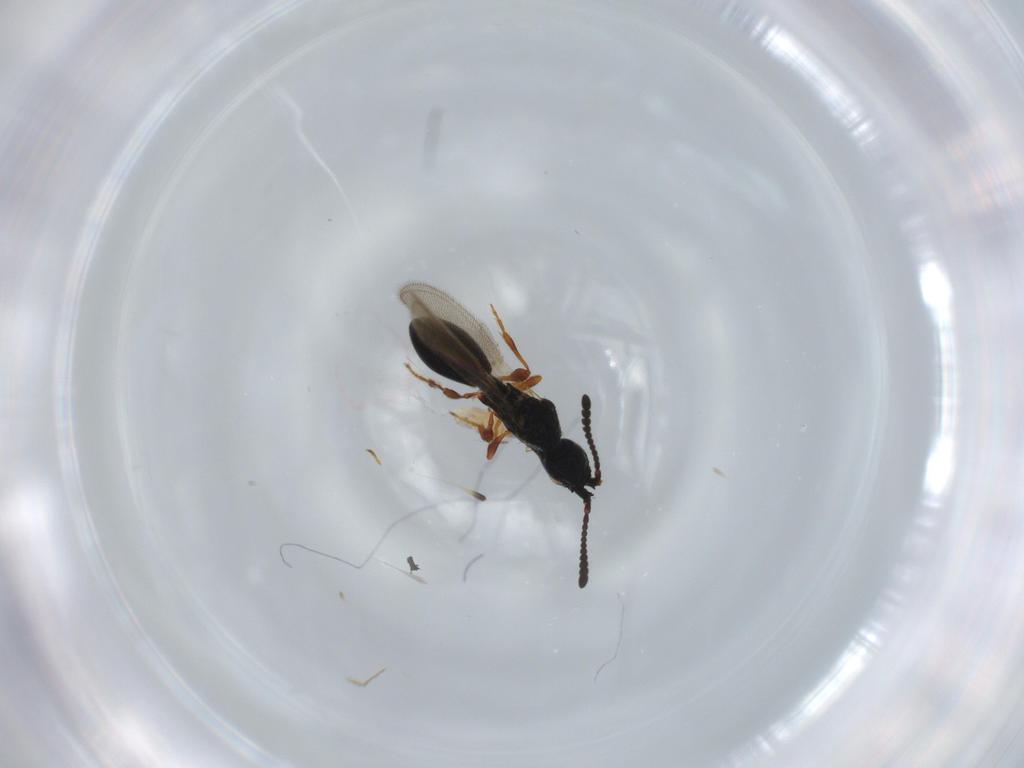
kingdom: Animalia
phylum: Arthropoda
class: Insecta
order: Hymenoptera
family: Diapriidae
